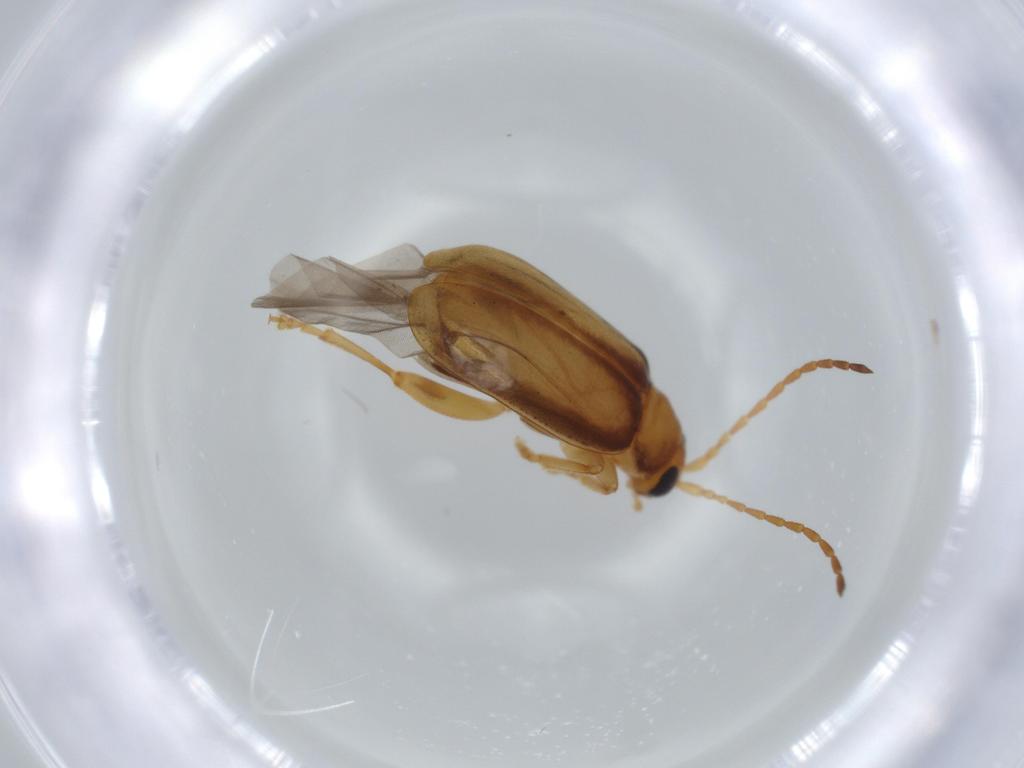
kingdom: Animalia
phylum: Arthropoda
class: Insecta
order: Coleoptera
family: Chrysomelidae
